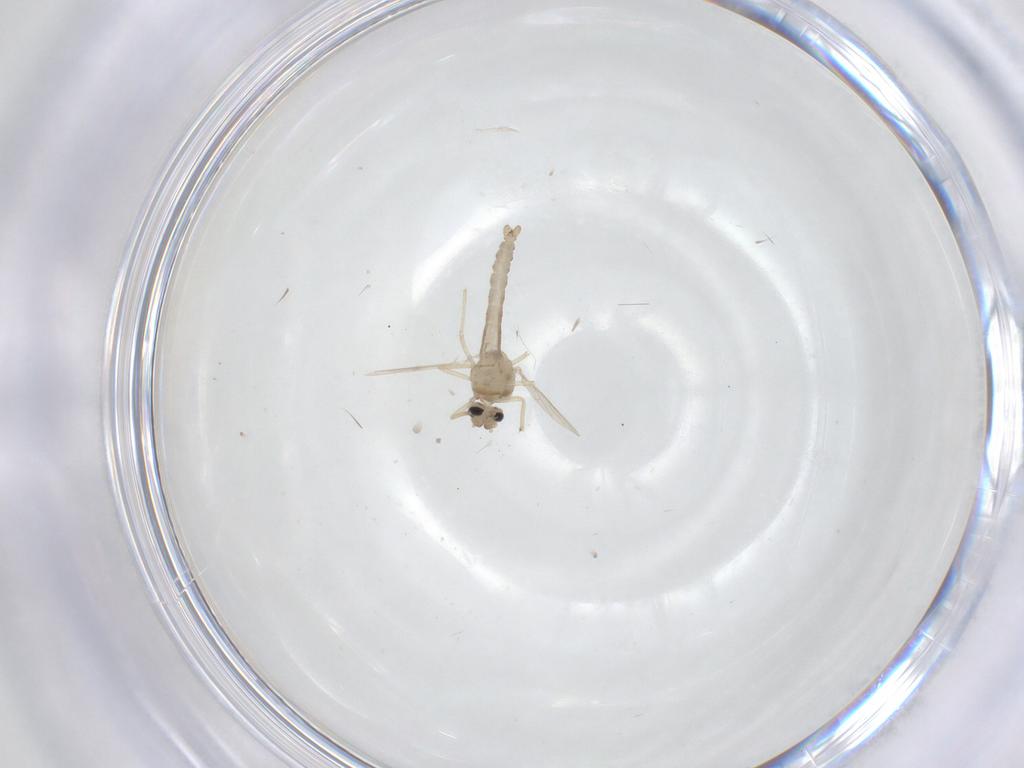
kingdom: Animalia
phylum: Arthropoda
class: Insecta
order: Diptera
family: Ceratopogonidae
